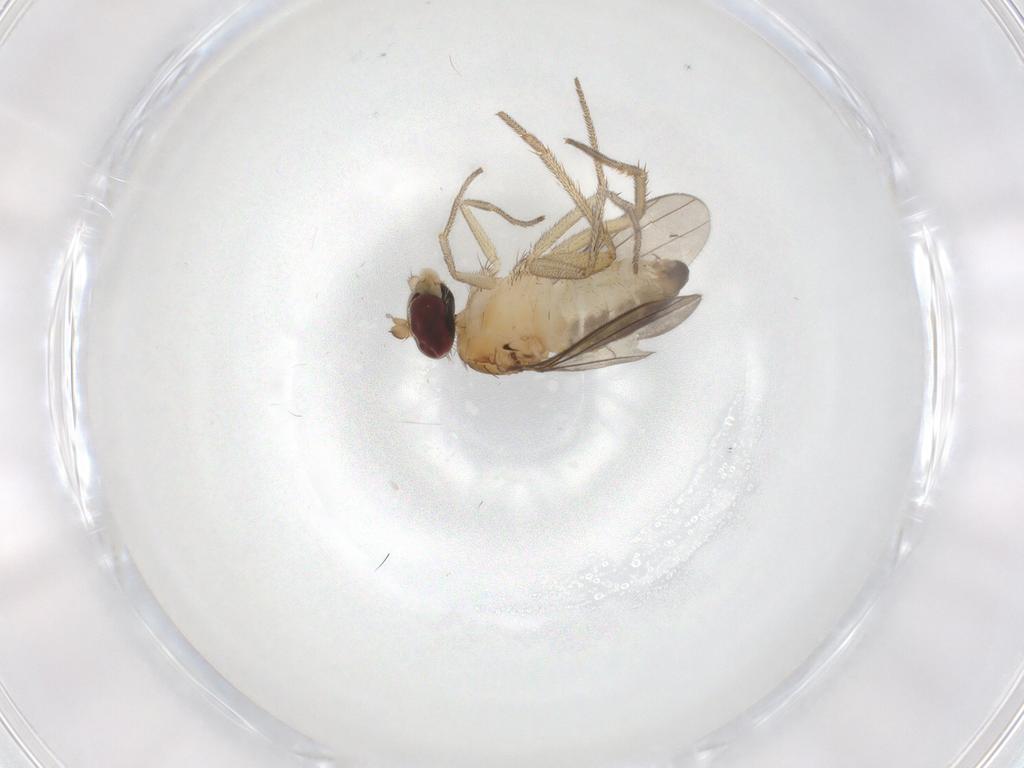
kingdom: Animalia
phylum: Arthropoda
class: Insecta
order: Diptera
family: Dolichopodidae
